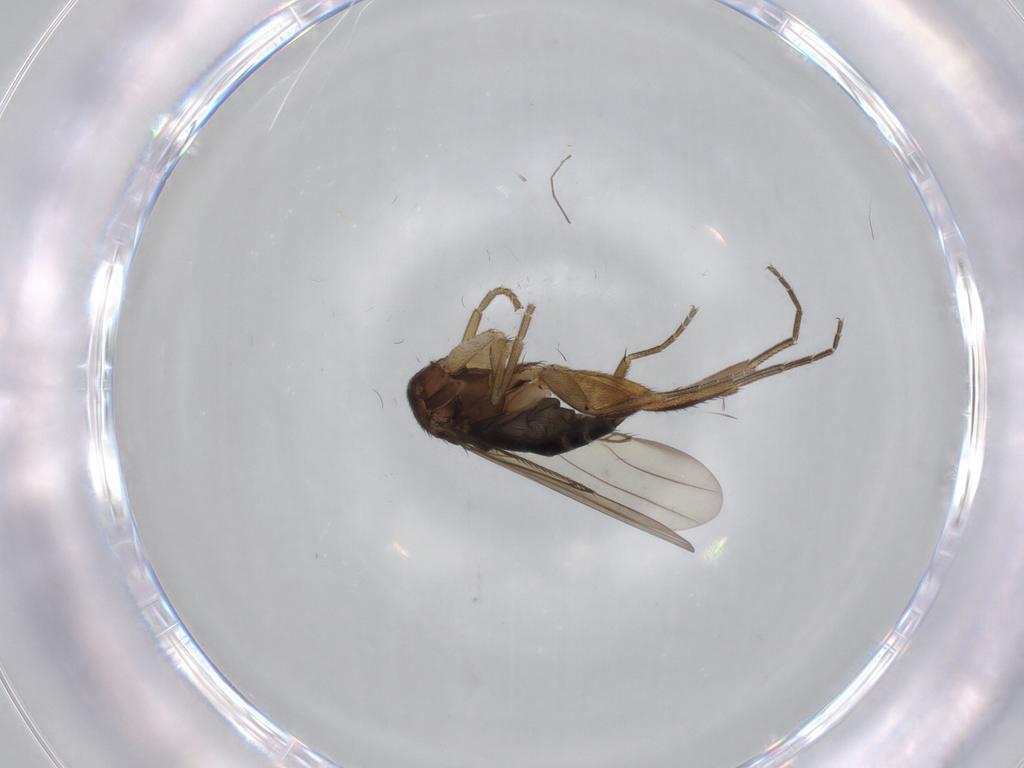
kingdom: Animalia
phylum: Arthropoda
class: Insecta
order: Diptera
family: Phoridae
